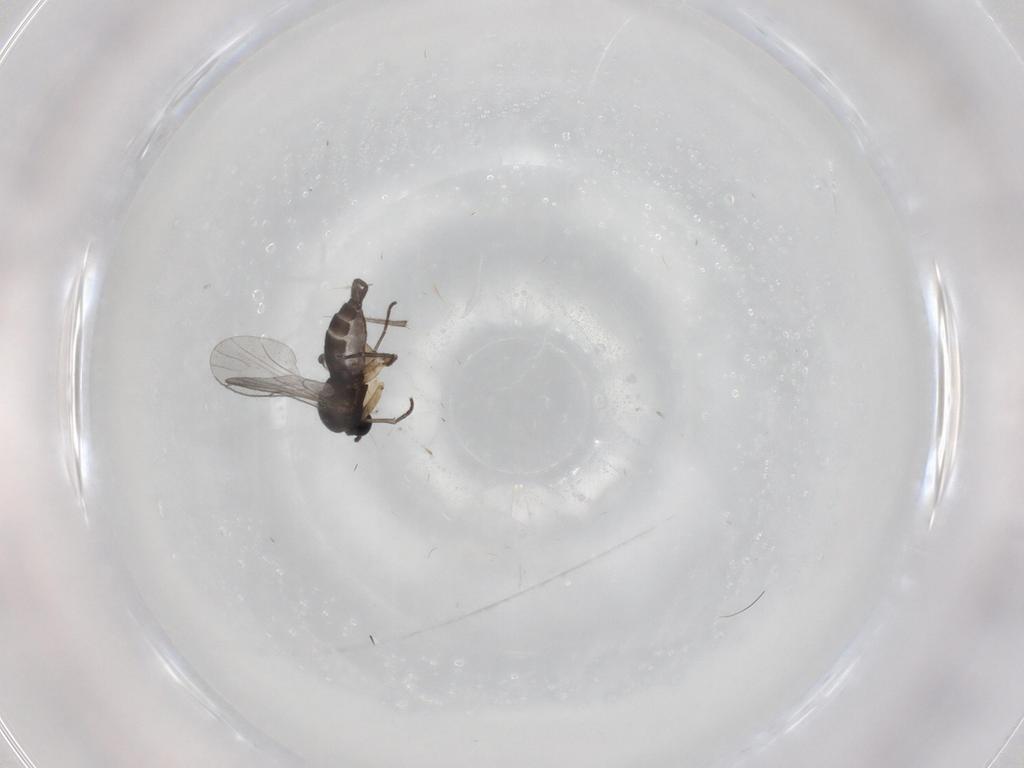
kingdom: Animalia
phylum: Arthropoda
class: Insecta
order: Diptera
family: Sciaridae
